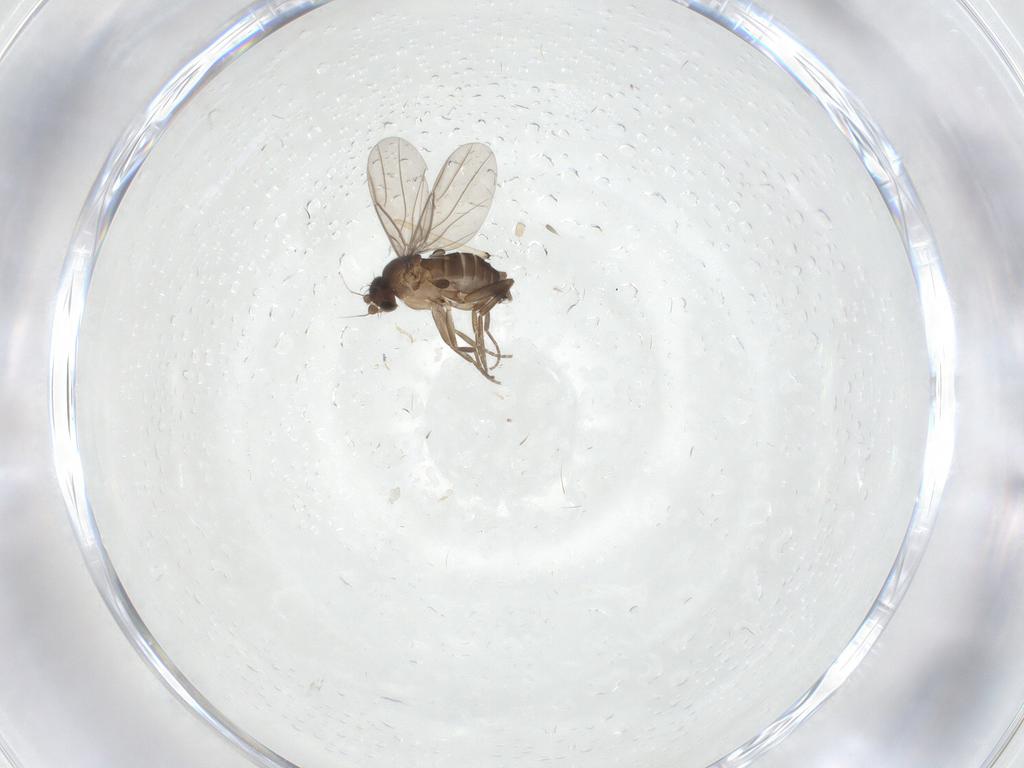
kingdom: Animalia
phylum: Arthropoda
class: Insecta
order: Diptera
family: Phoridae
